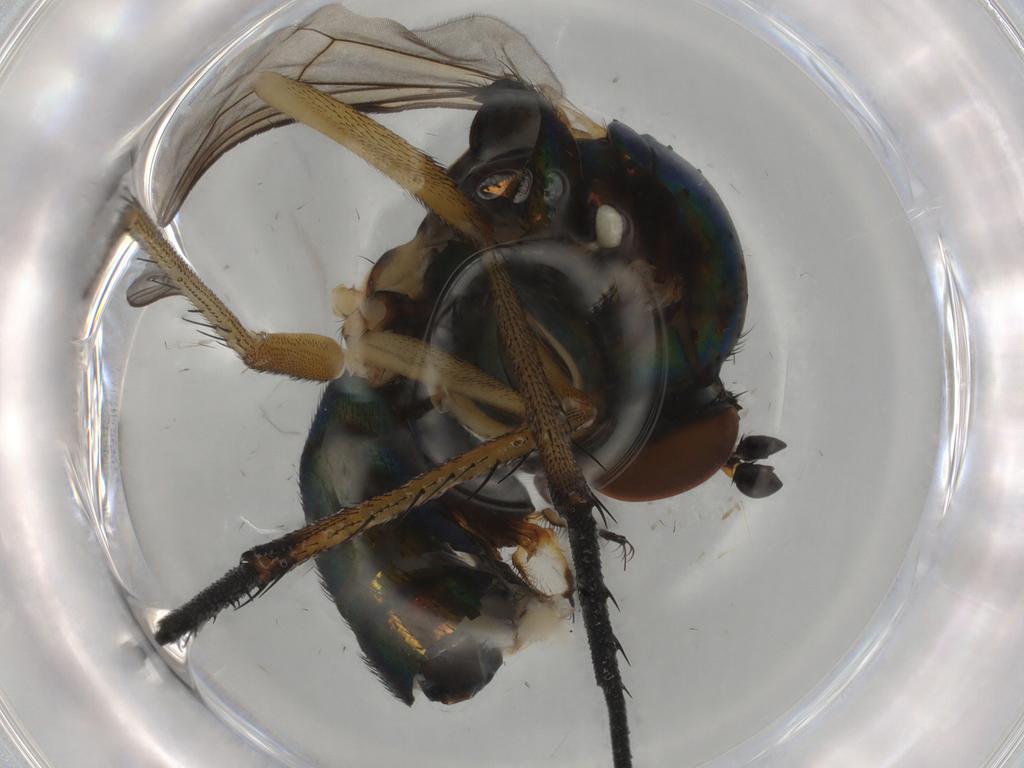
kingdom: Animalia
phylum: Arthropoda
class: Insecta
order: Diptera
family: Dolichopodidae
